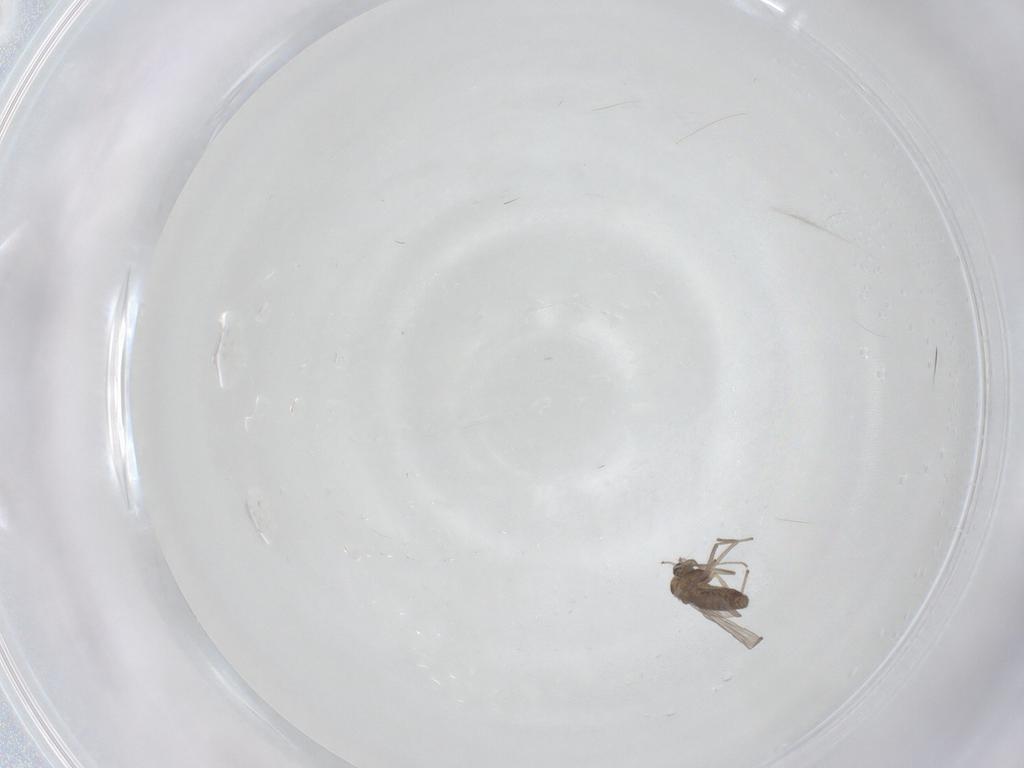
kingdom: Animalia
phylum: Arthropoda
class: Insecta
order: Diptera
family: Chironomidae
